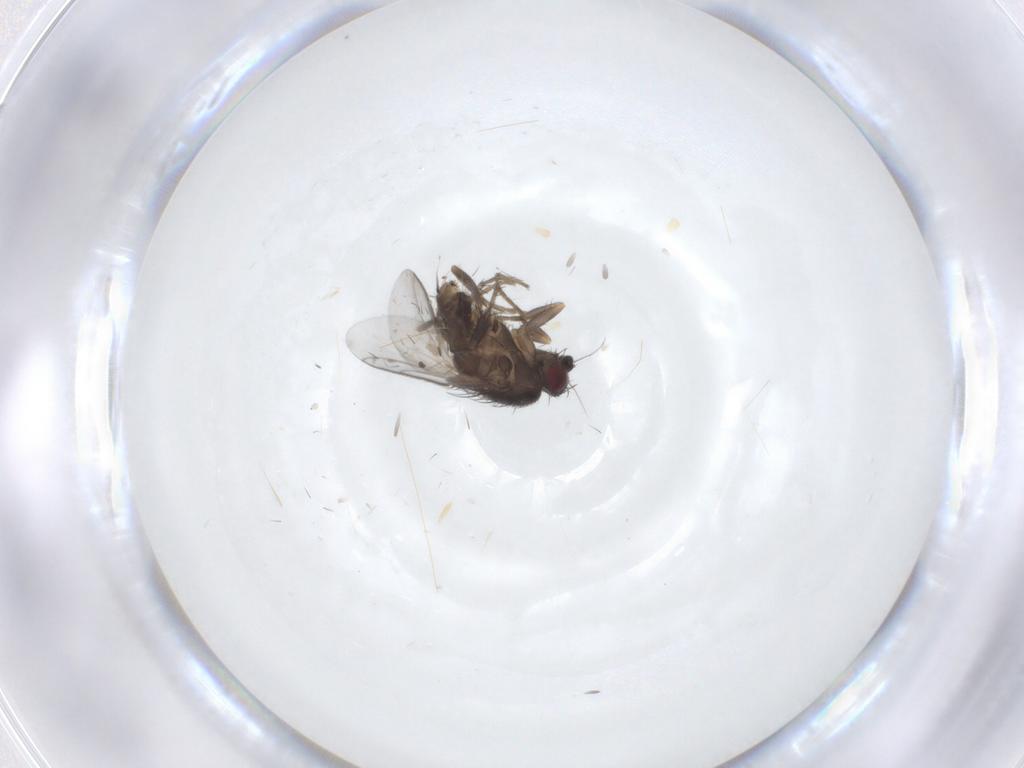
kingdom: Animalia
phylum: Arthropoda
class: Insecta
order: Diptera
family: Sphaeroceridae
